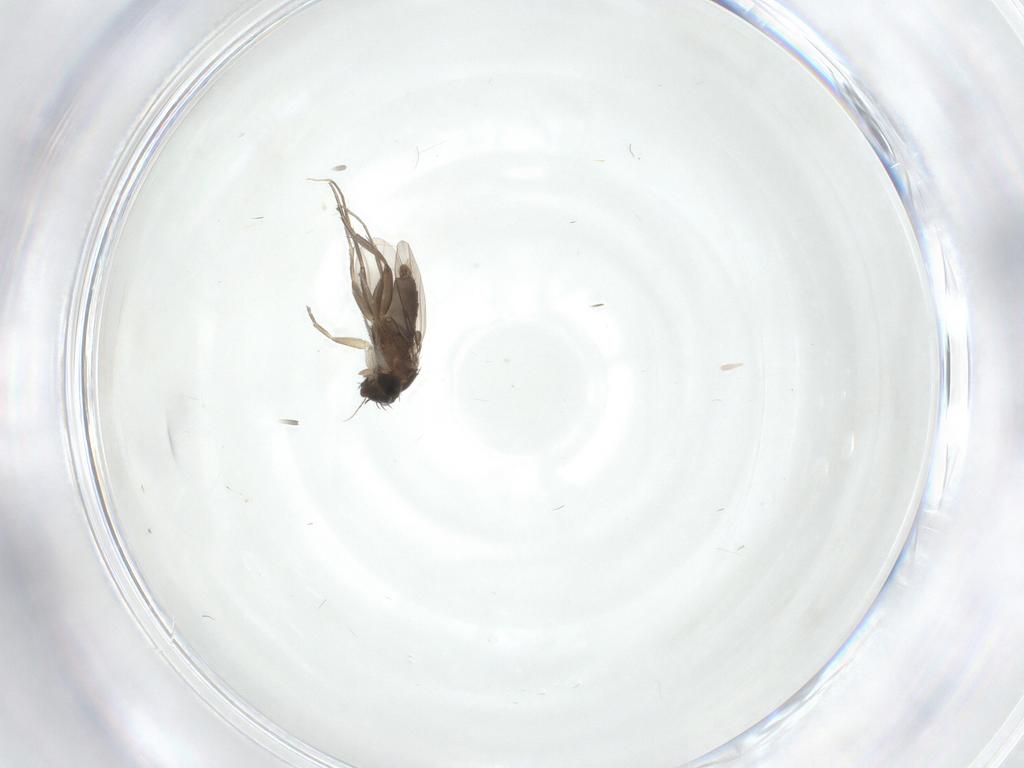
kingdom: Animalia
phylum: Arthropoda
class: Insecta
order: Diptera
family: Phoridae
